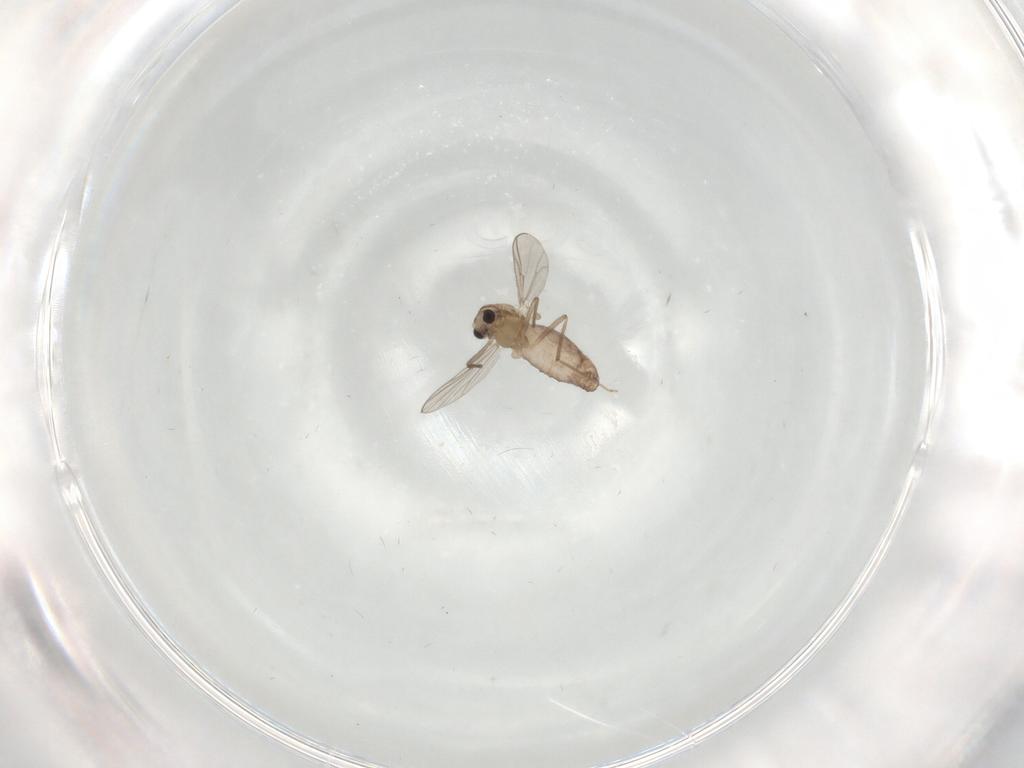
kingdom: Animalia
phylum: Arthropoda
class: Insecta
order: Diptera
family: Chironomidae
